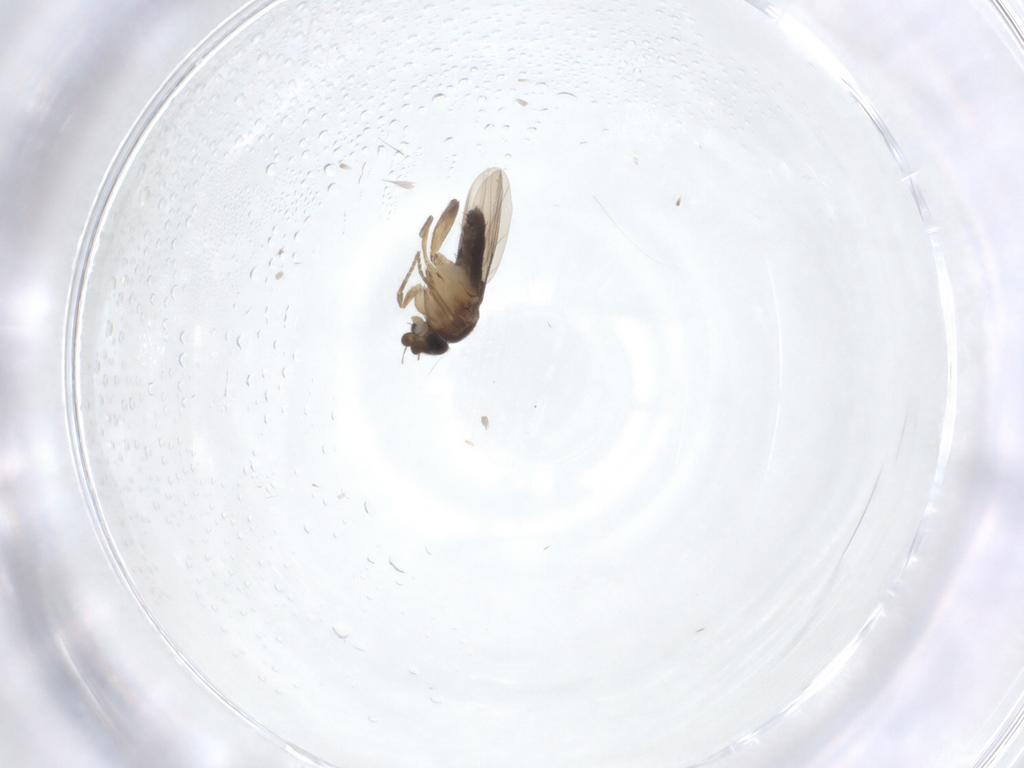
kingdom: Animalia
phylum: Arthropoda
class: Insecta
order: Diptera
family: Phoridae
